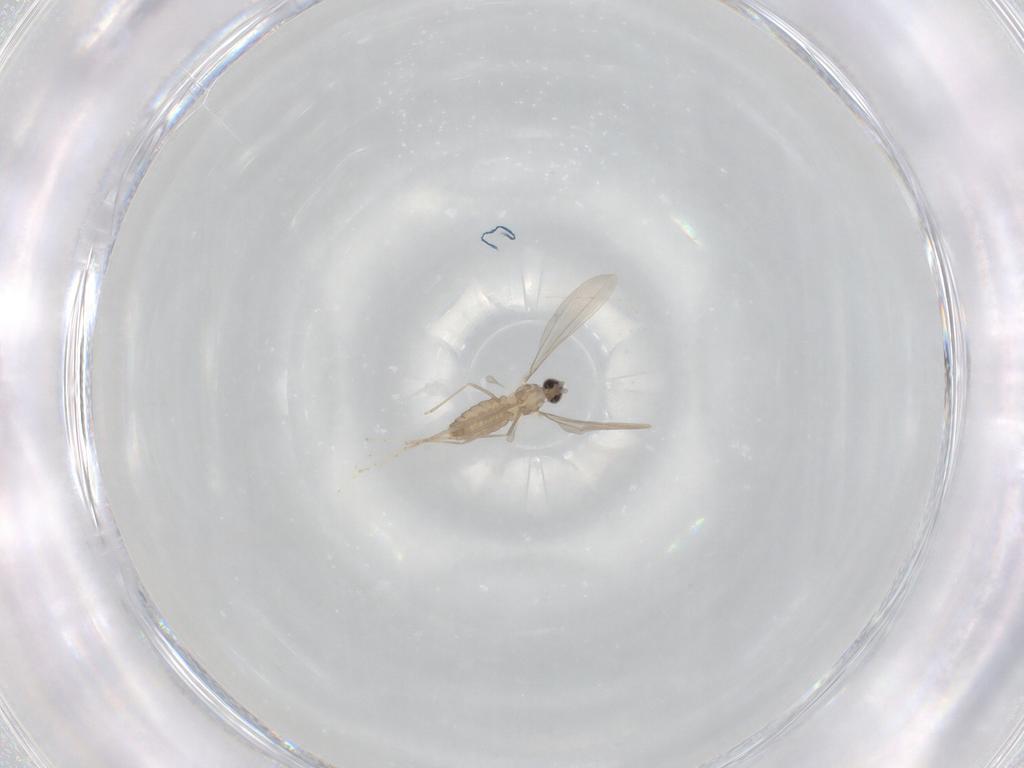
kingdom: Animalia
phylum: Arthropoda
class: Insecta
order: Diptera
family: Cecidomyiidae
